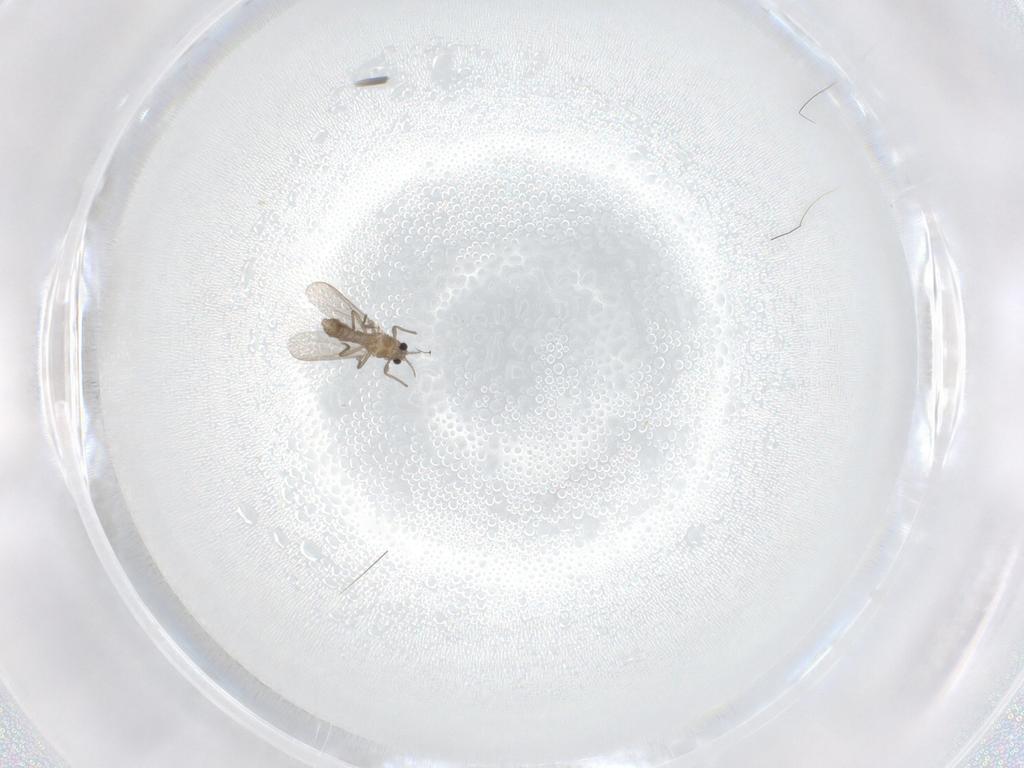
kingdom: Animalia
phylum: Arthropoda
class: Insecta
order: Diptera
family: Chironomidae
